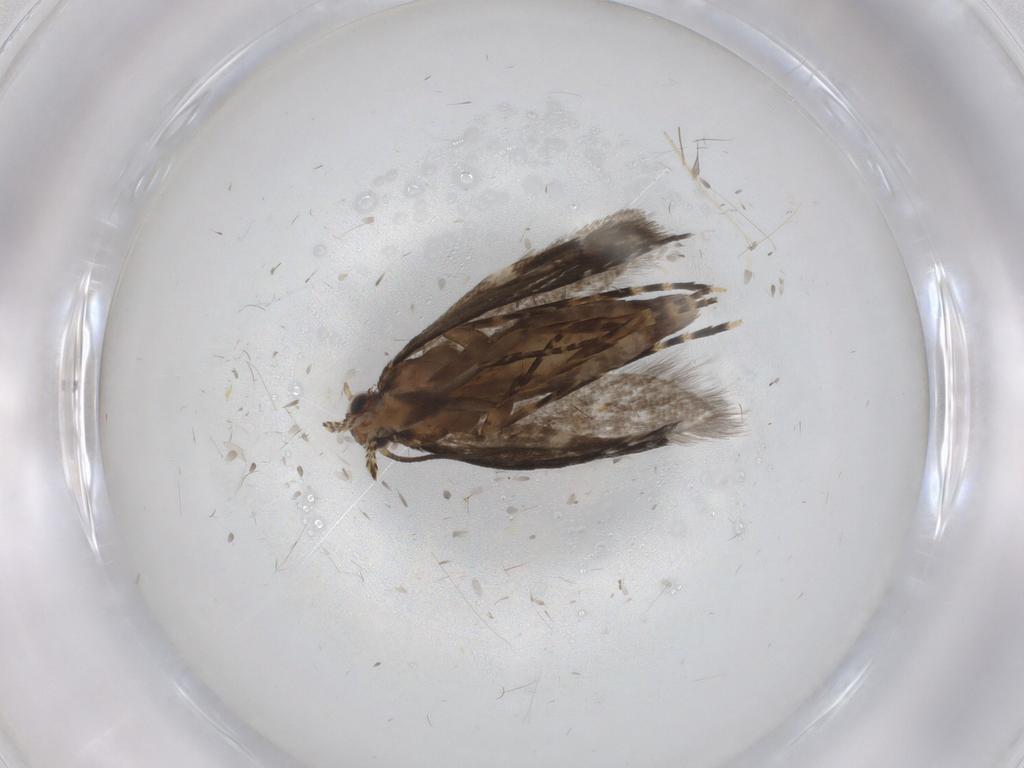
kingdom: Animalia
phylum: Arthropoda
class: Insecta
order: Lepidoptera
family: Glyphipterigidae
